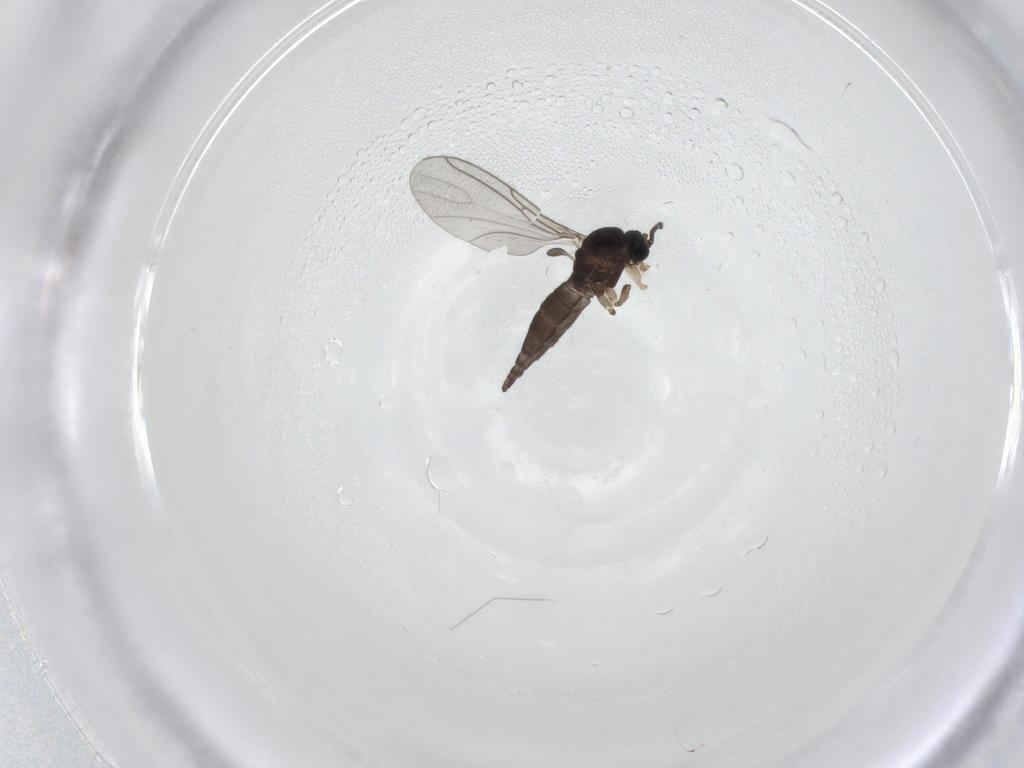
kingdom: Animalia
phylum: Arthropoda
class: Insecta
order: Diptera
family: Sciaridae
